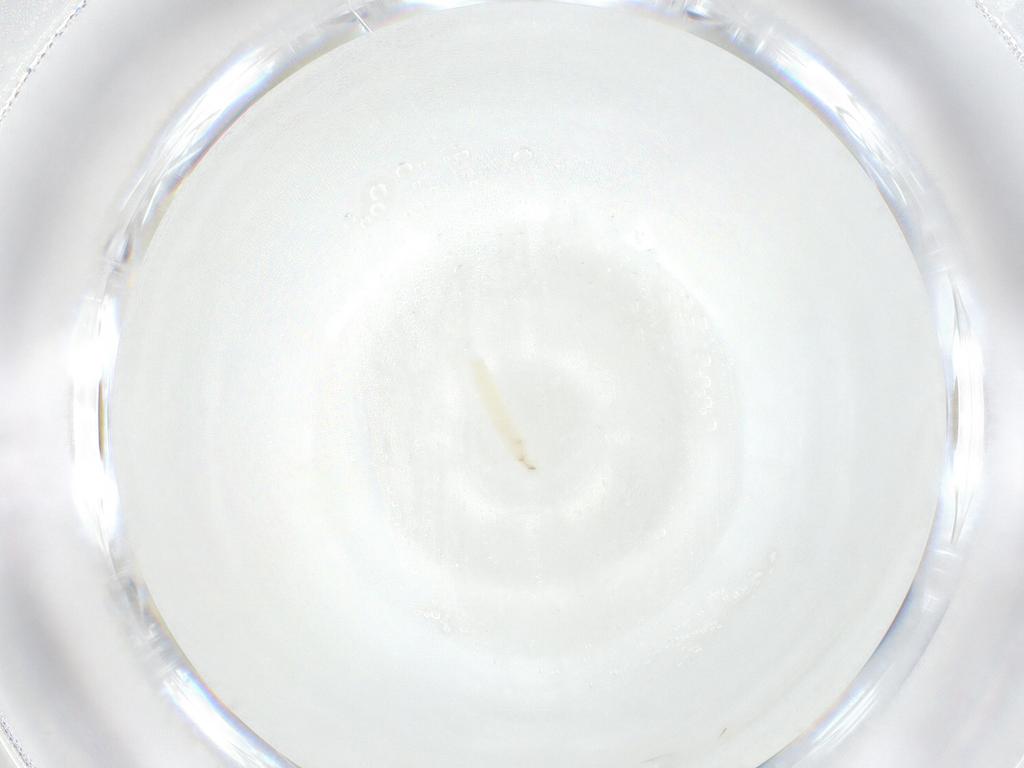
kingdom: Animalia
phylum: Arthropoda
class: Insecta
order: Diptera
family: Sarcophagidae
